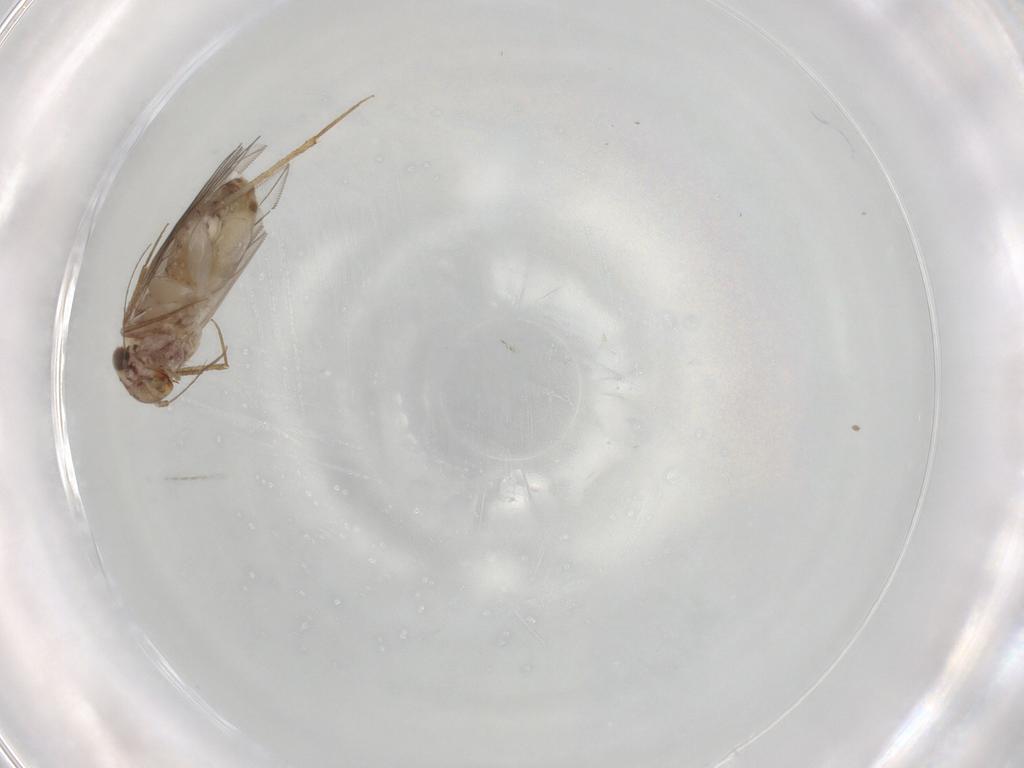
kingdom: Animalia
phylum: Arthropoda
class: Insecta
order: Psocodea
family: Lepidopsocidae
